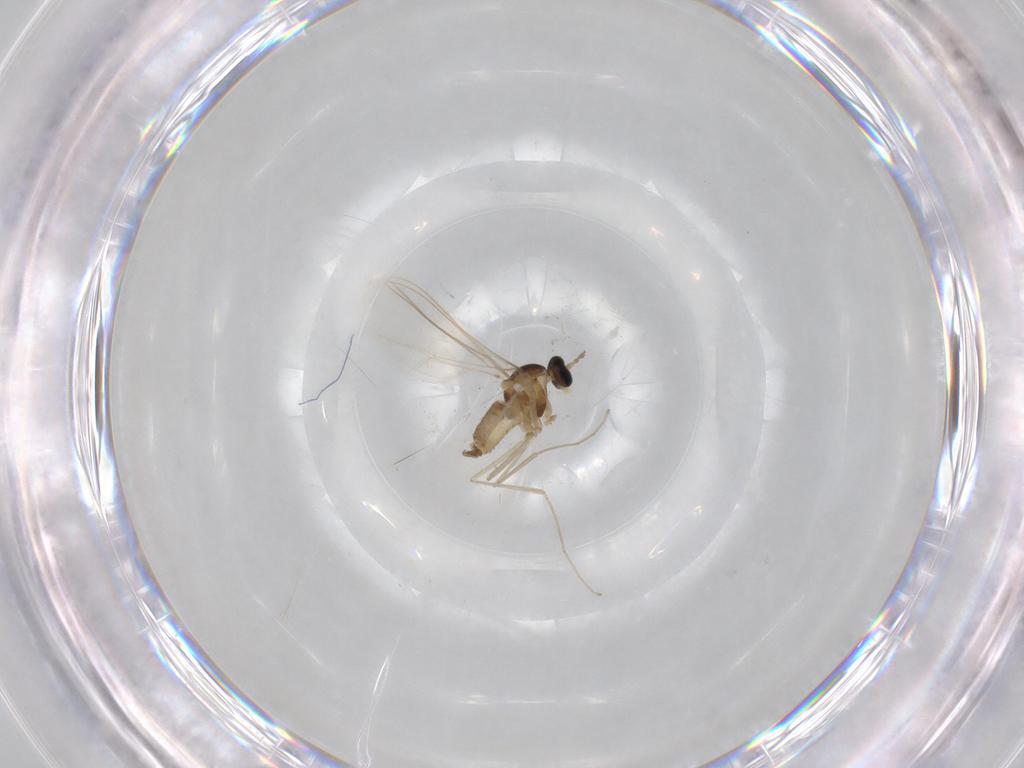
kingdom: Animalia
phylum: Arthropoda
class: Insecta
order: Diptera
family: Cecidomyiidae
